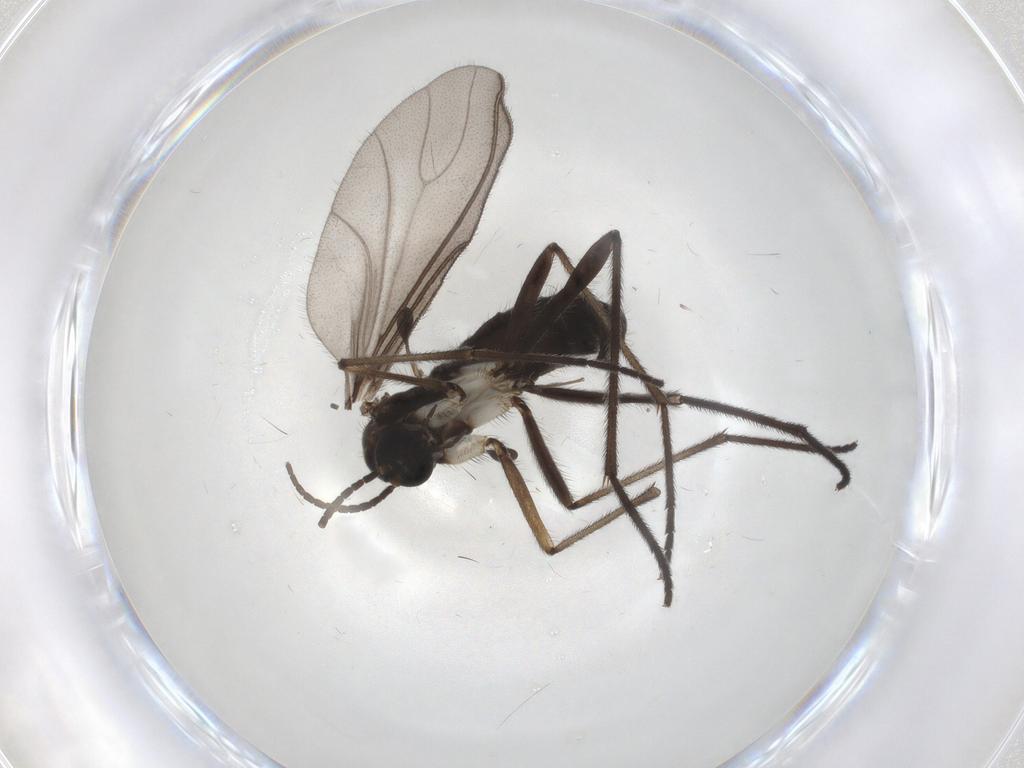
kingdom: Animalia
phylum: Arthropoda
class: Insecta
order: Diptera
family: Sciaridae
